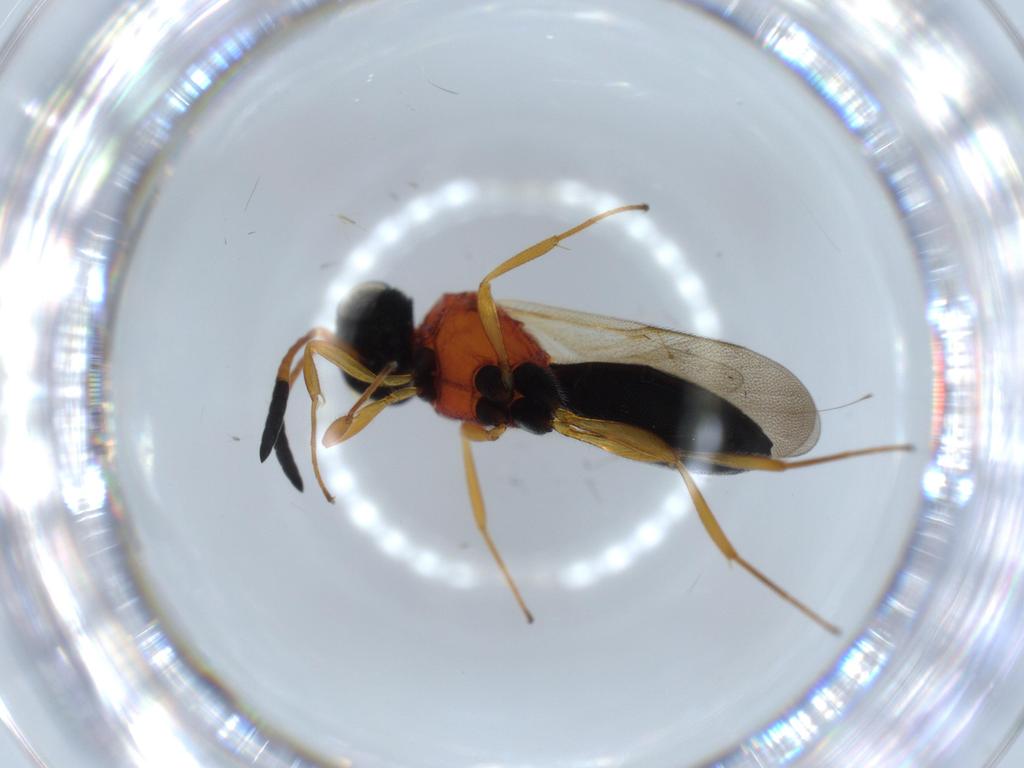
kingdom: Animalia
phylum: Arthropoda
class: Insecta
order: Hymenoptera
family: Scelionidae
